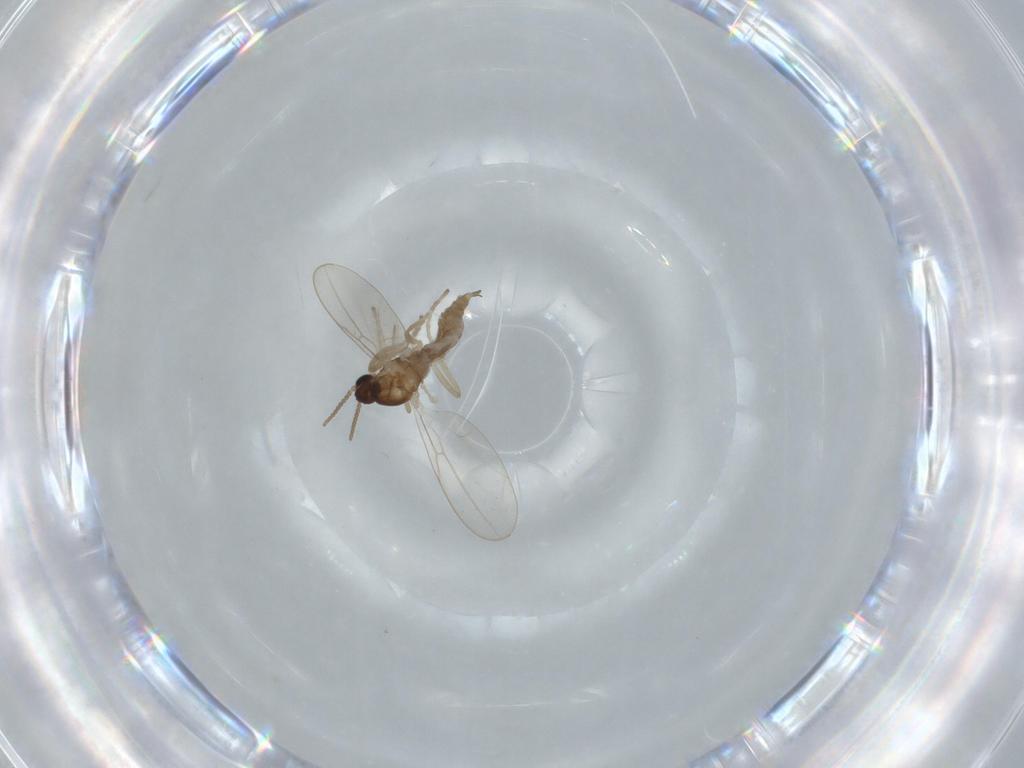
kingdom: Animalia
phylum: Arthropoda
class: Insecta
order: Diptera
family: Cecidomyiidae
